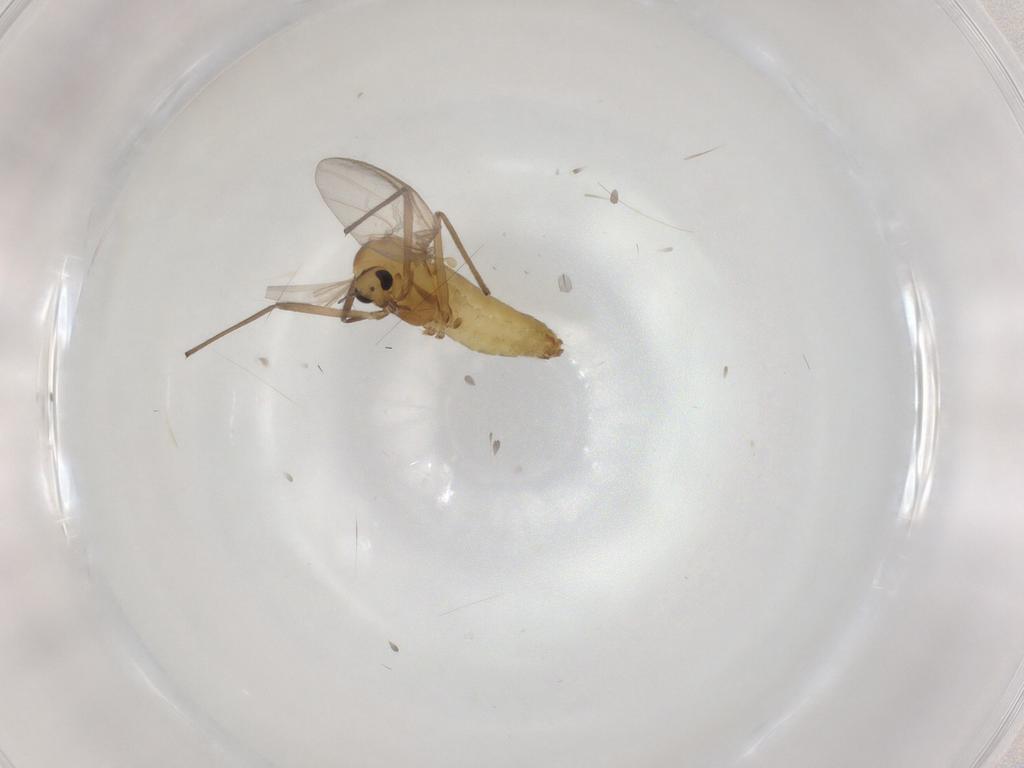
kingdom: Animalia
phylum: Arthropoda
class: Insecta
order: Diptera
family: Chironomidae
